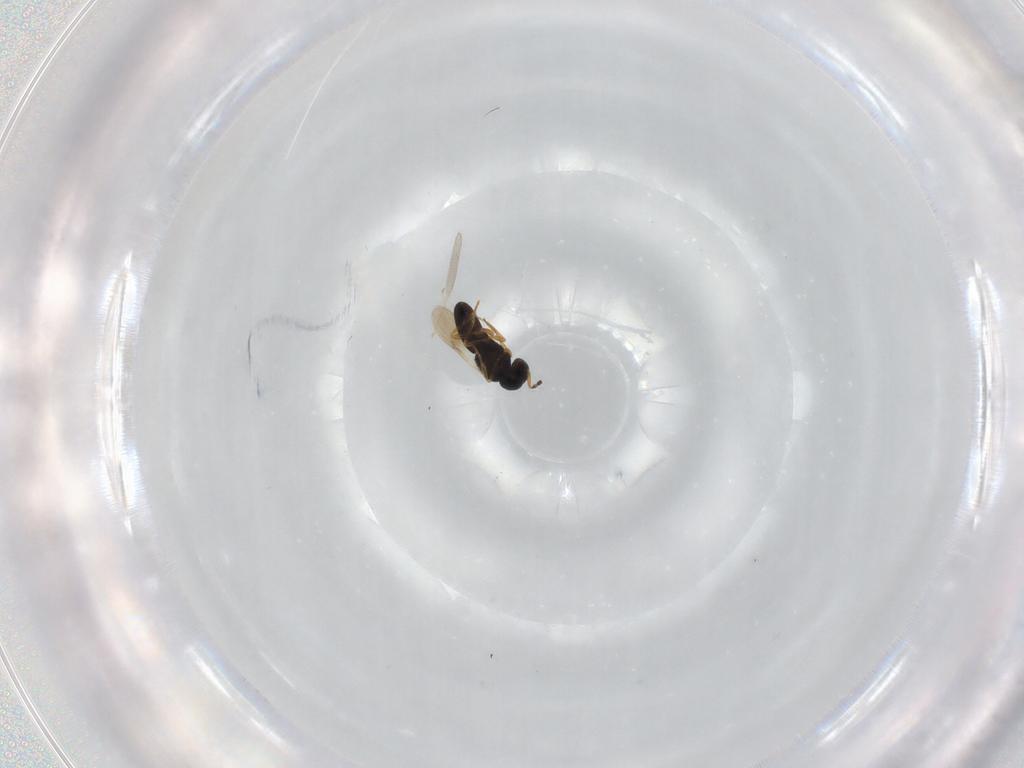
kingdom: Animalia
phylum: Arthropoda
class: Insecta
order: Hymenoptera
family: Scelionidae
